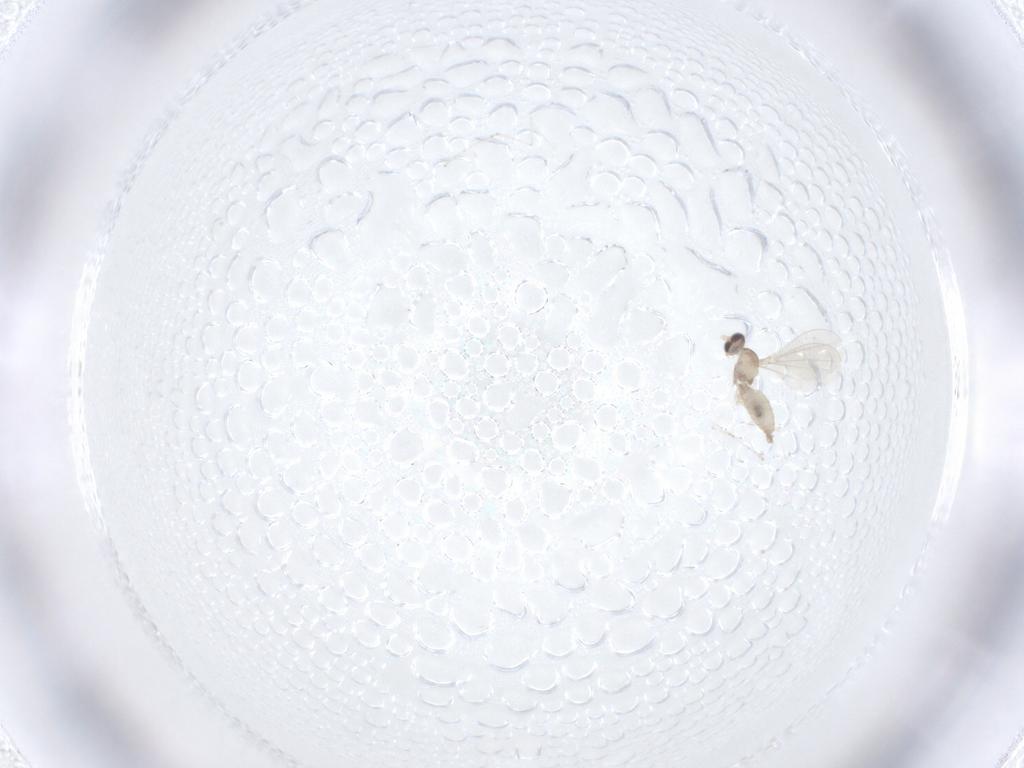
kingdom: Animalia
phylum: Arthropoda
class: Insecta
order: Diptera
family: Cecidomyiidae
